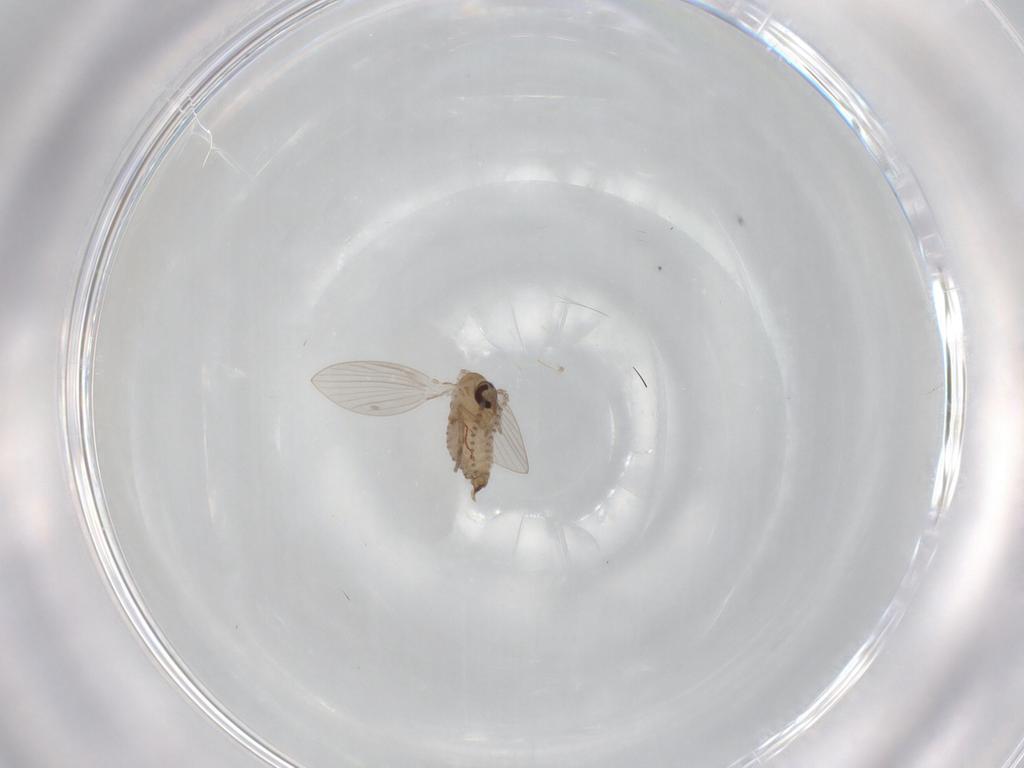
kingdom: Animalia
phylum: Arthropoda
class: Insecta
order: Diptera
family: Psychodidae
